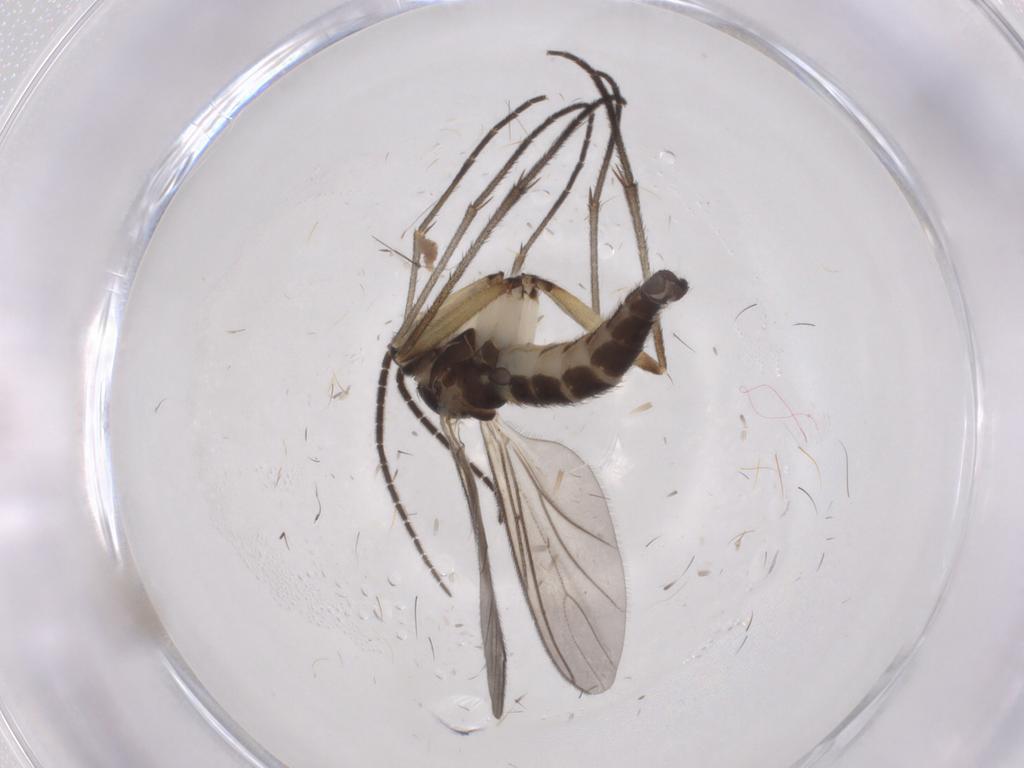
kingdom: Animalia
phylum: Arthropoda
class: Insecta
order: Diptera
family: Sciaridae
